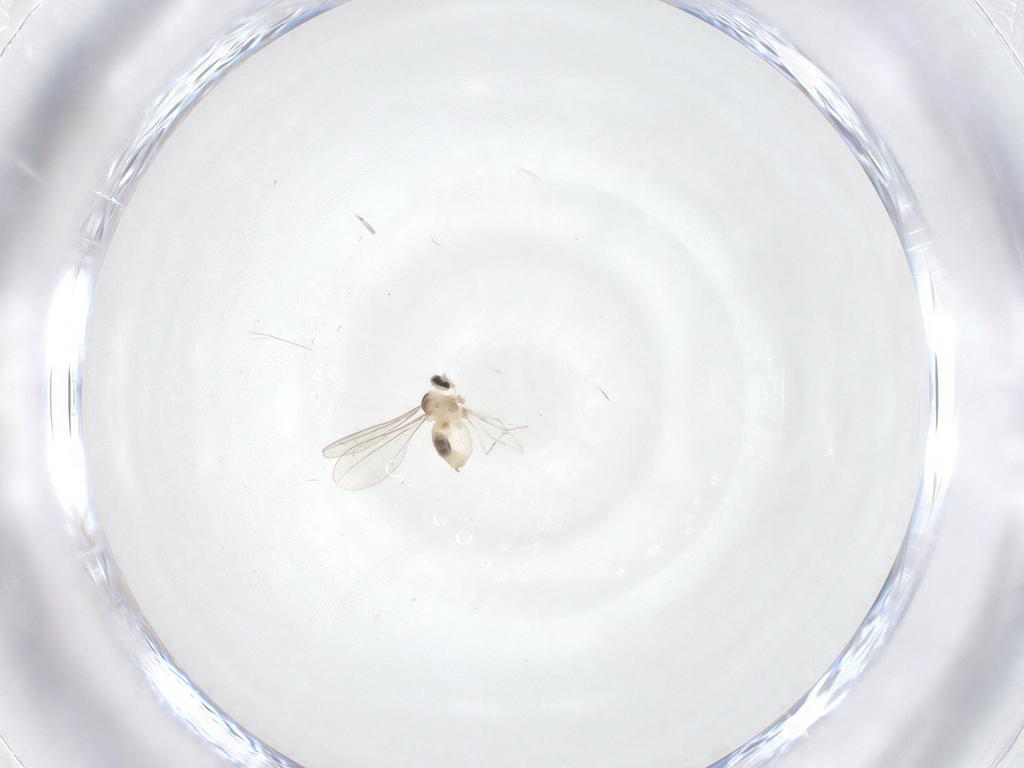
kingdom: Animalia
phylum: Arthropoda
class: Insecta
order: Diptera
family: Cecidomyiidae
